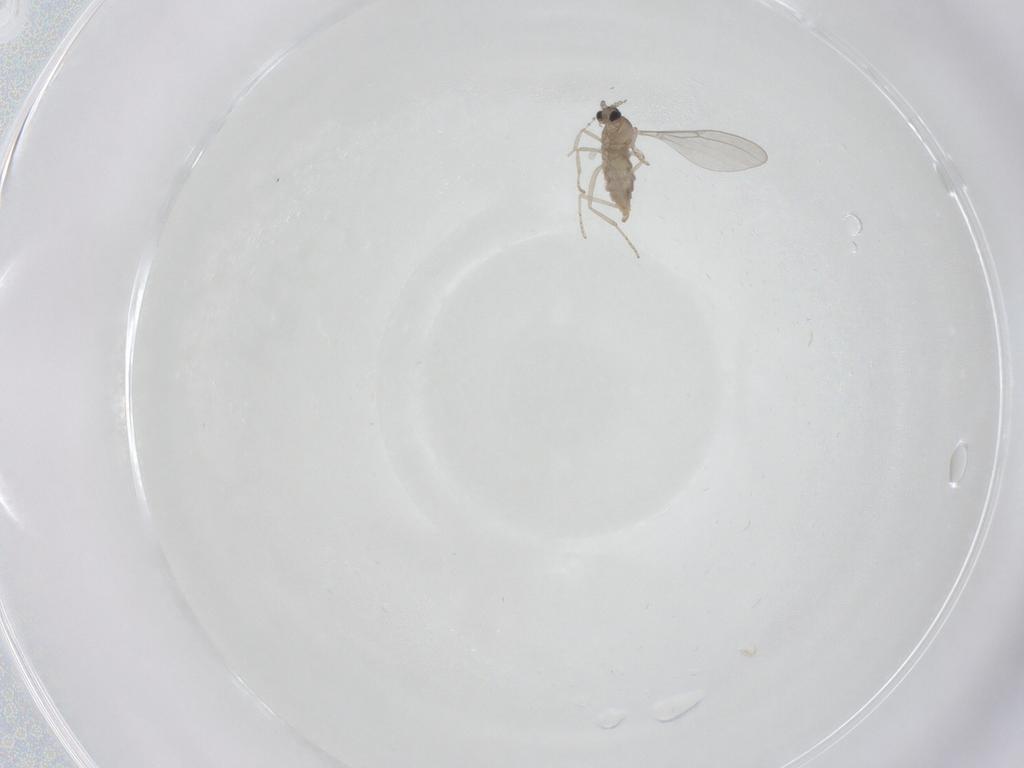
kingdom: Animalia
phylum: Arthropoda
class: Insecta
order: Diptera
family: Cecidomyiidae
